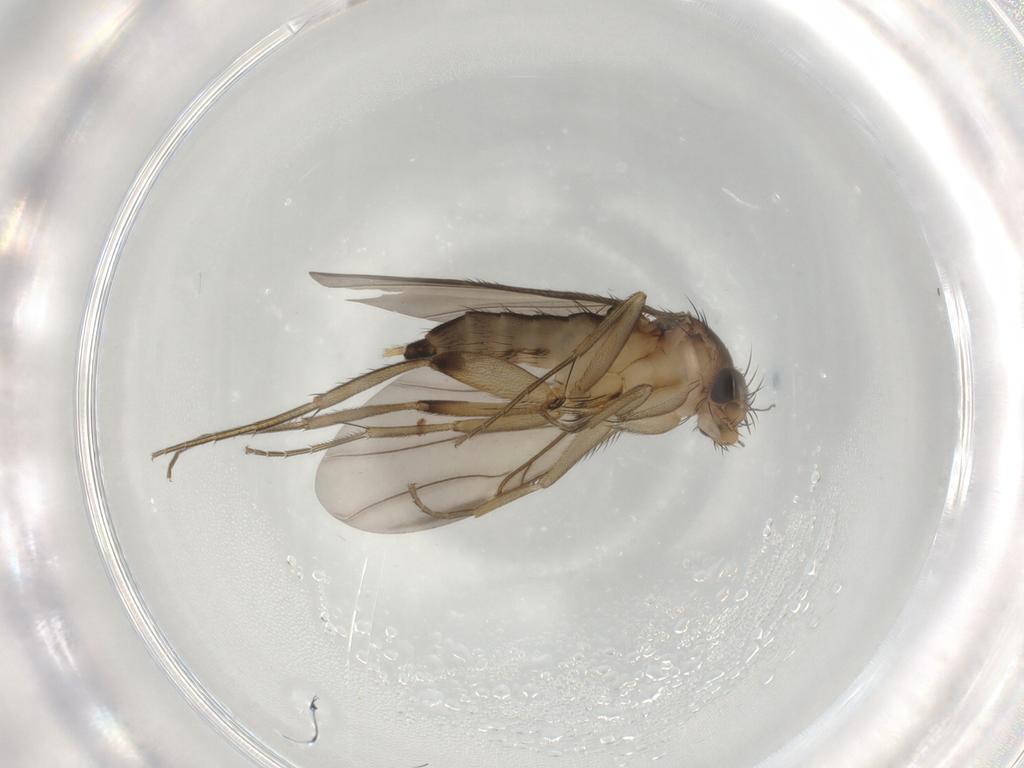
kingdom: Animalia
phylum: Arthropoda
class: Insecta
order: Diptera
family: Phoridae
